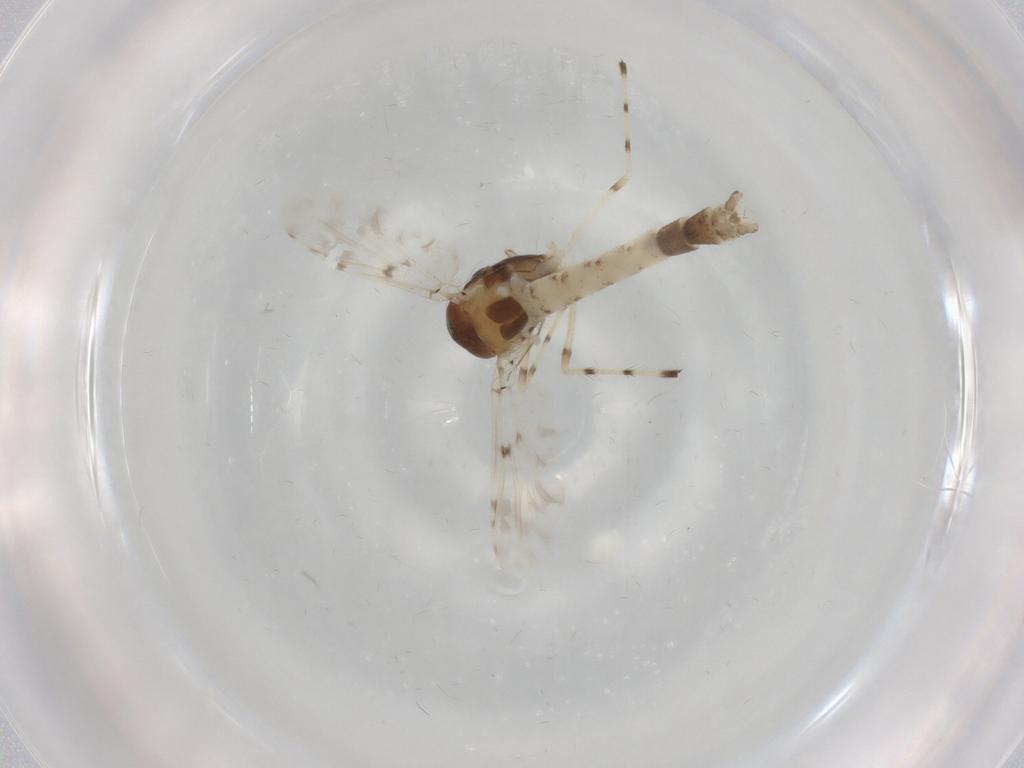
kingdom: Animalia
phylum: Arthropoda
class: Insecta
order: Diptera
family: Chironomidae
